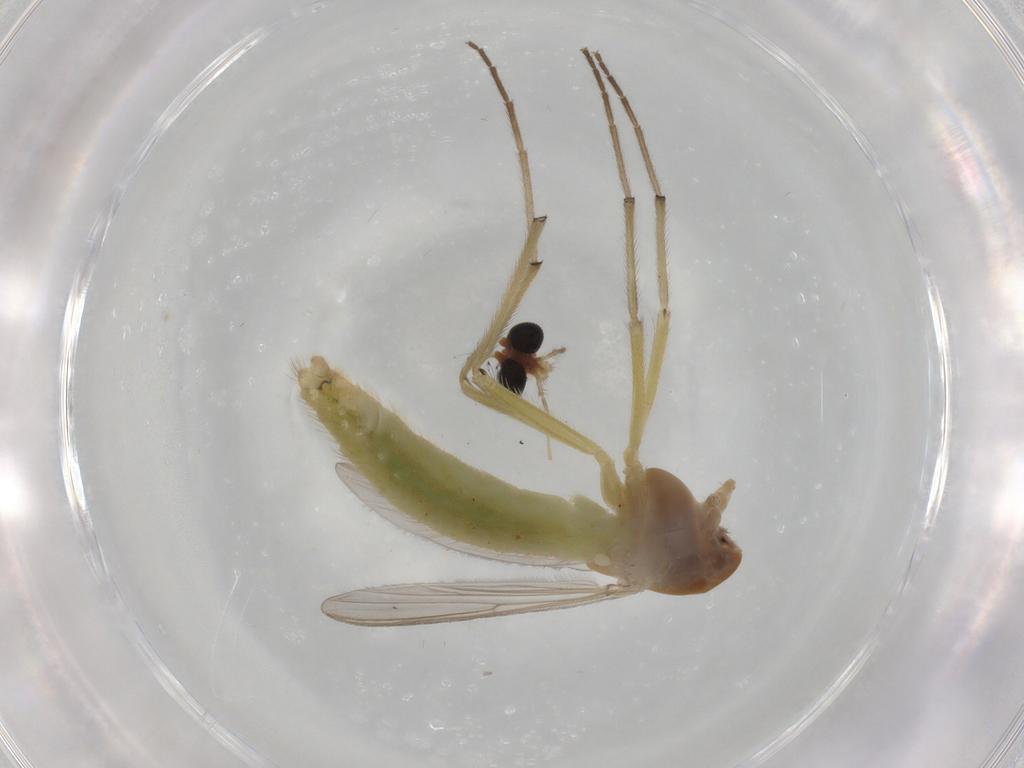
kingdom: Animalia
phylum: Arthropoda
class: Insecta
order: Diptera
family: Chironomidae
